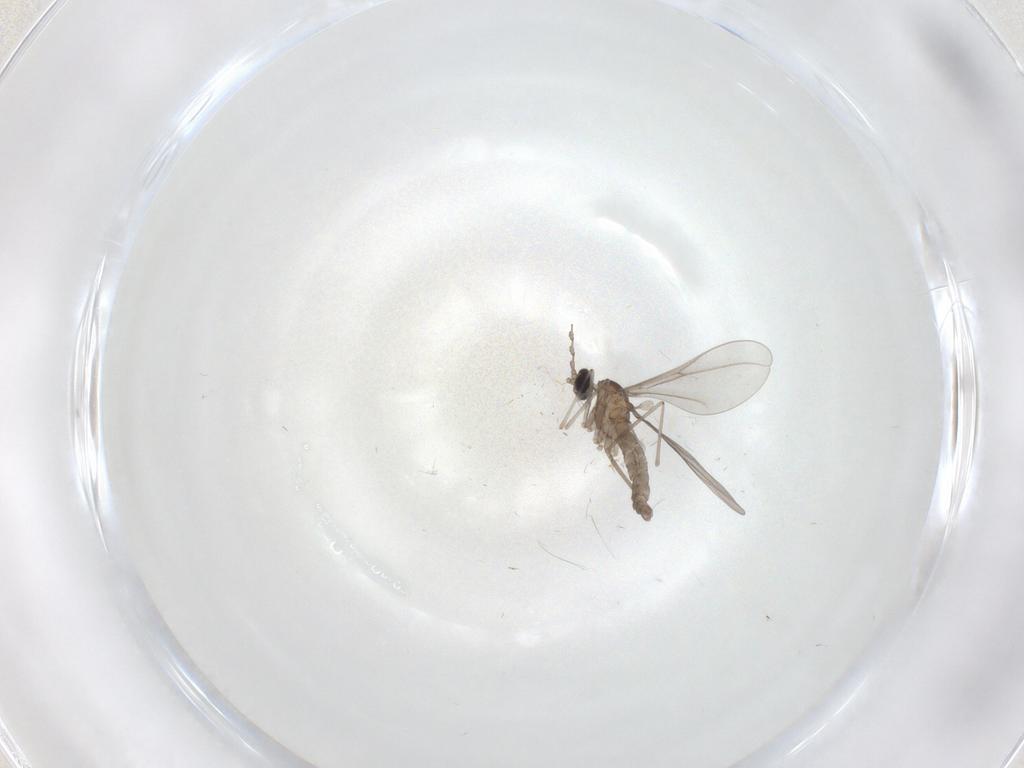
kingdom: Animalia
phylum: Arthropoda
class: Insecta
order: Diptera
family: Cecidomyiidae
